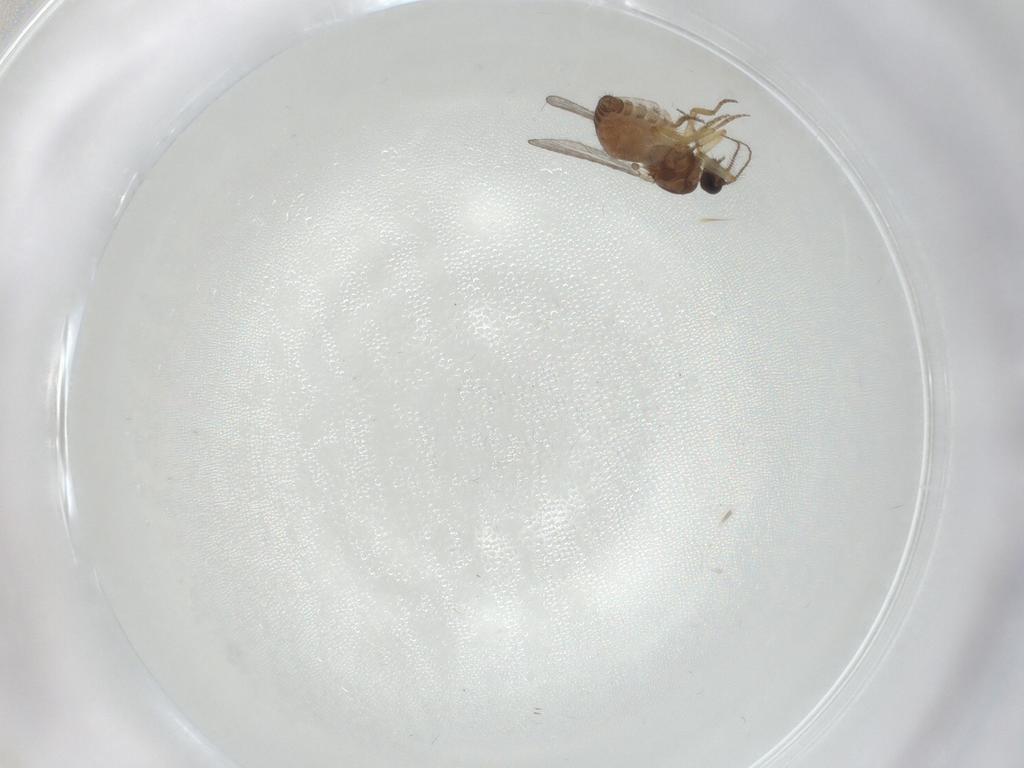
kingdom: Animalia
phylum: Arthropoda
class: Insecta
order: Diptera
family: Ceratopogonidae
